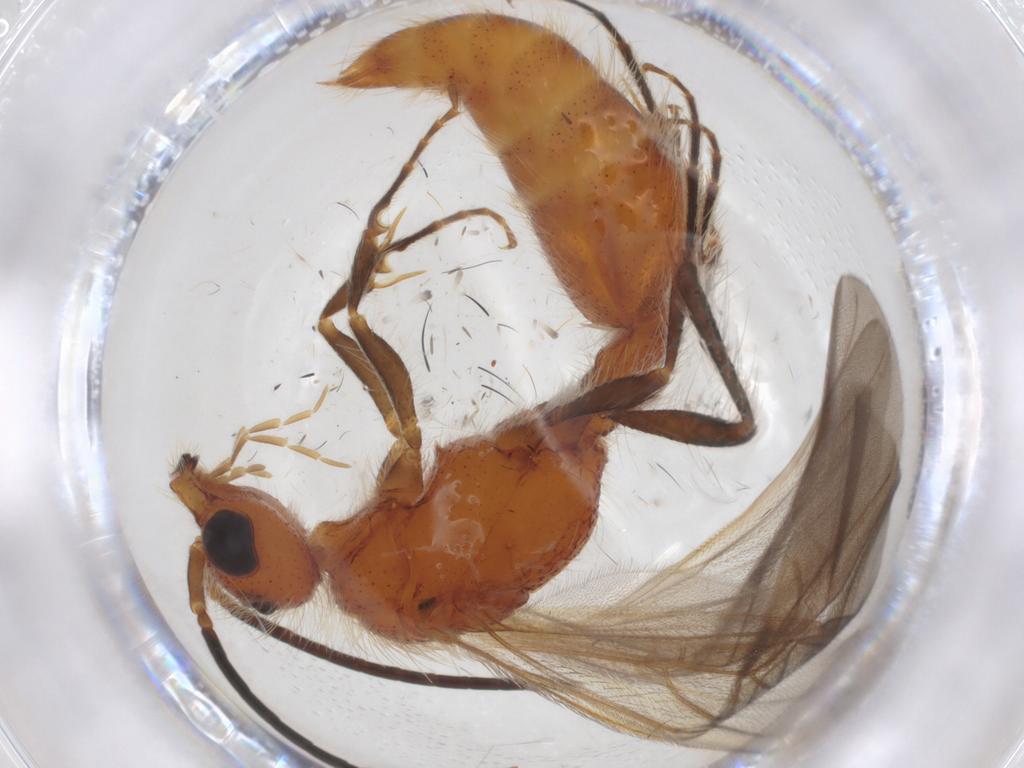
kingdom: Animalia
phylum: Arthropoda
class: Insecta
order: Hymenoptera
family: Braconidae
